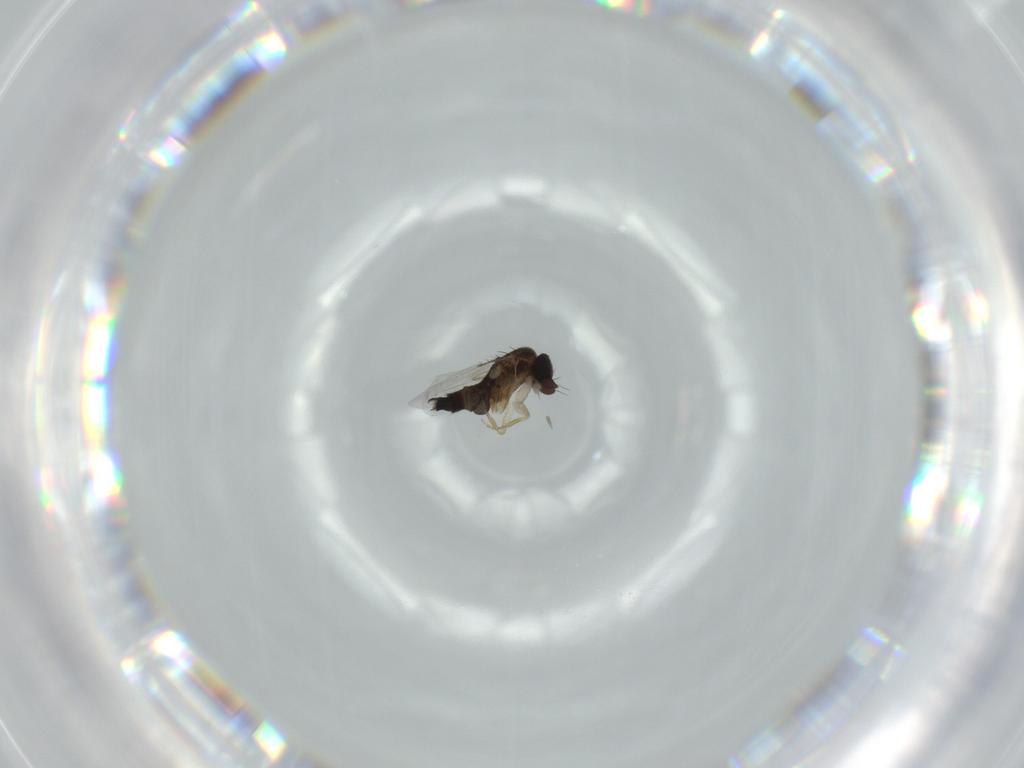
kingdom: Animalia
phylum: Arthropoda
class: Insecta
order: Diptera
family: Phoridae
